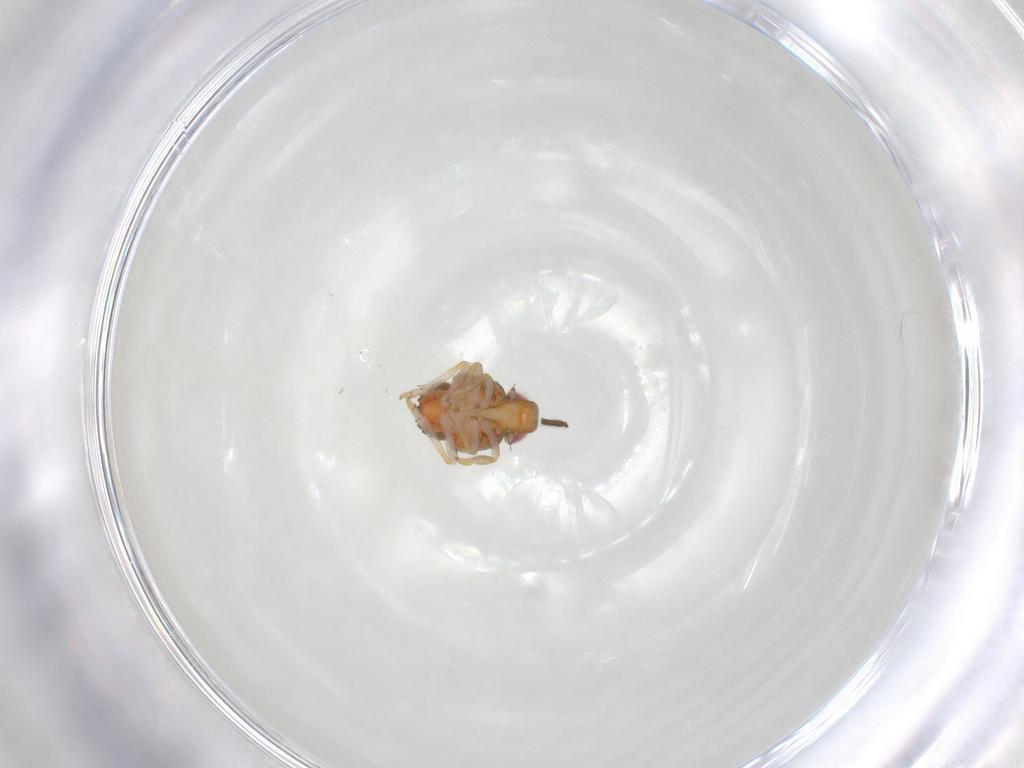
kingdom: Animalia
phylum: Arthropoda
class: Insecta
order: Hemiptera
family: Issidae
